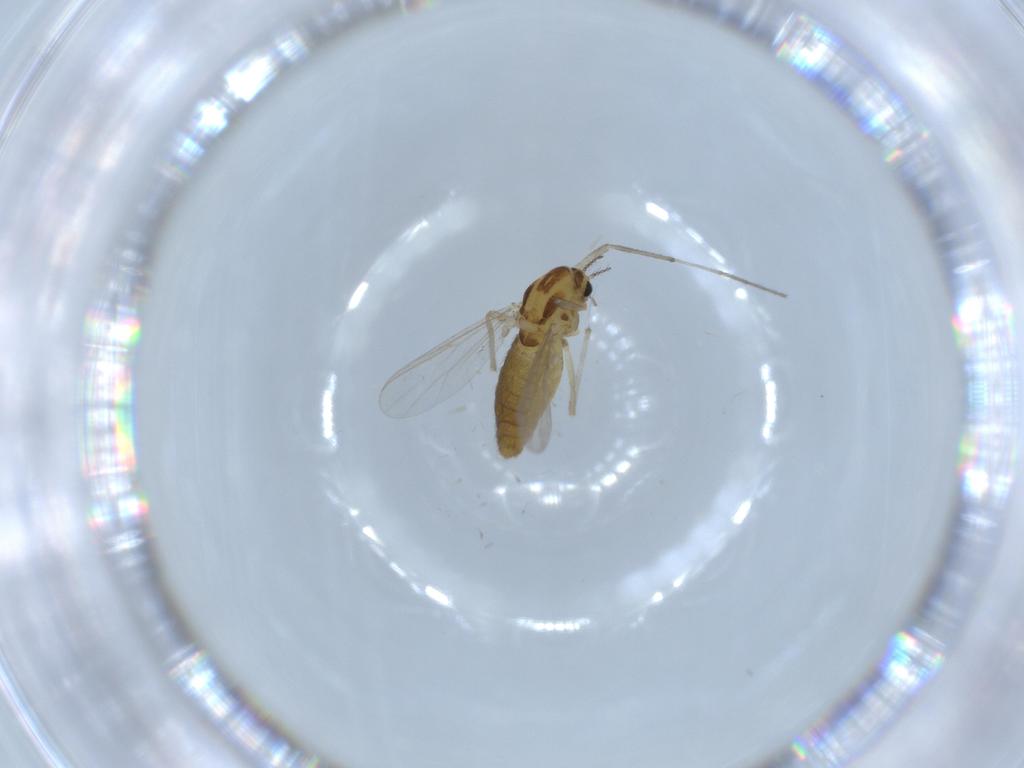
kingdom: Animalia
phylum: Arthropoda
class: Insecta
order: Diptera
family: Chironomidae
